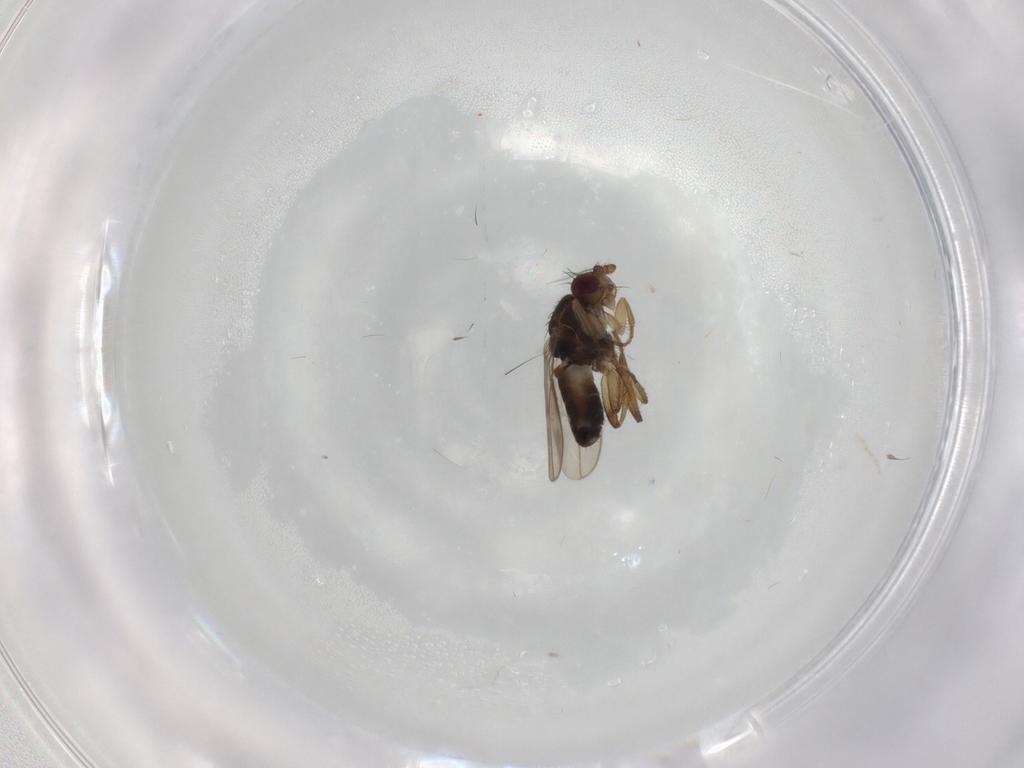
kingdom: Animalia
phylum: Arthropoda
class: Insecta
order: Diptera
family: Sphaeroceridae
